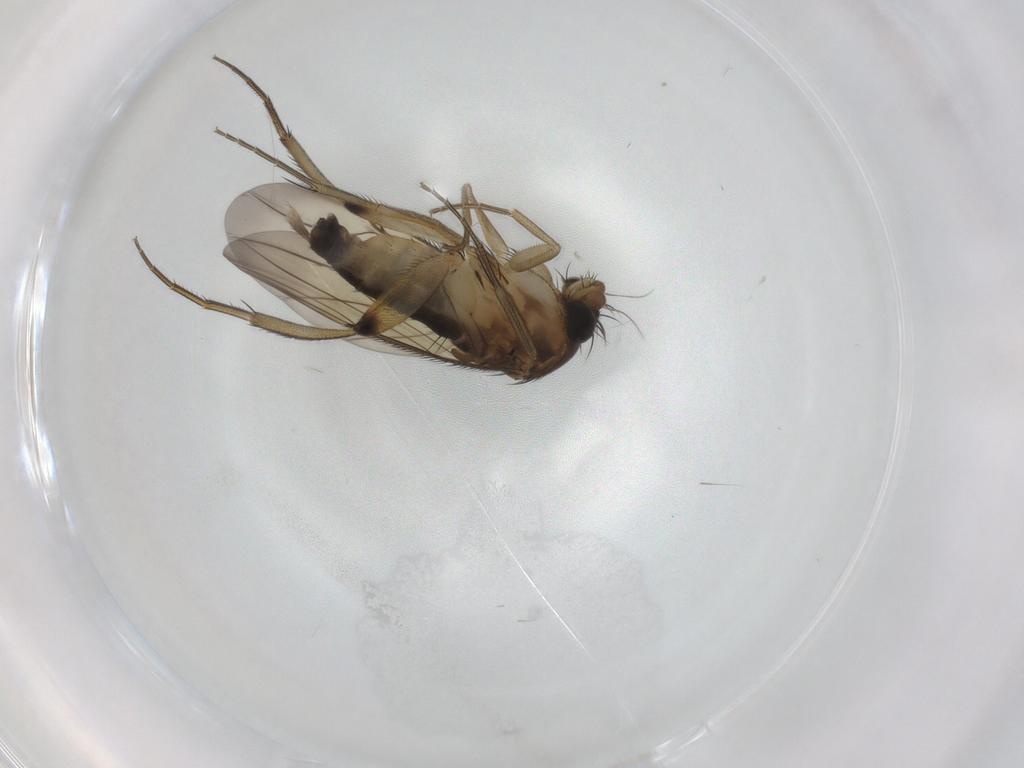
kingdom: Animalia
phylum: Arthropoda
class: Insecta
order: Diptera
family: Phoridae
